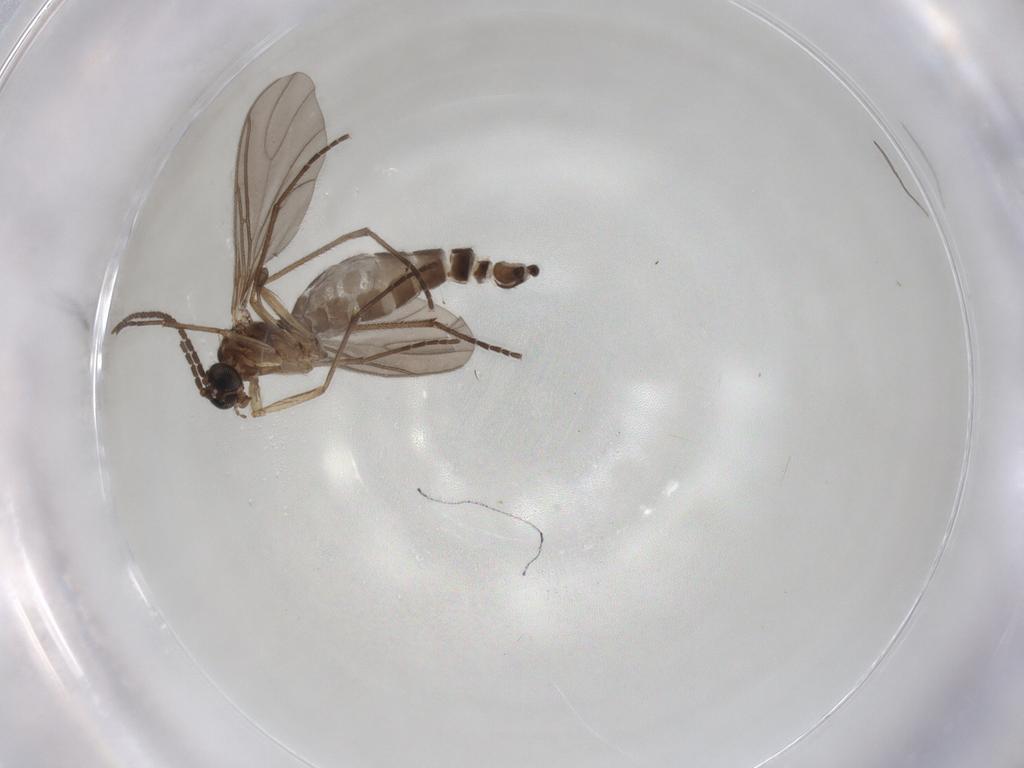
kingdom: Animalia
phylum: Arthropoda
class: Insecta
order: Diptera
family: Sciaridae
